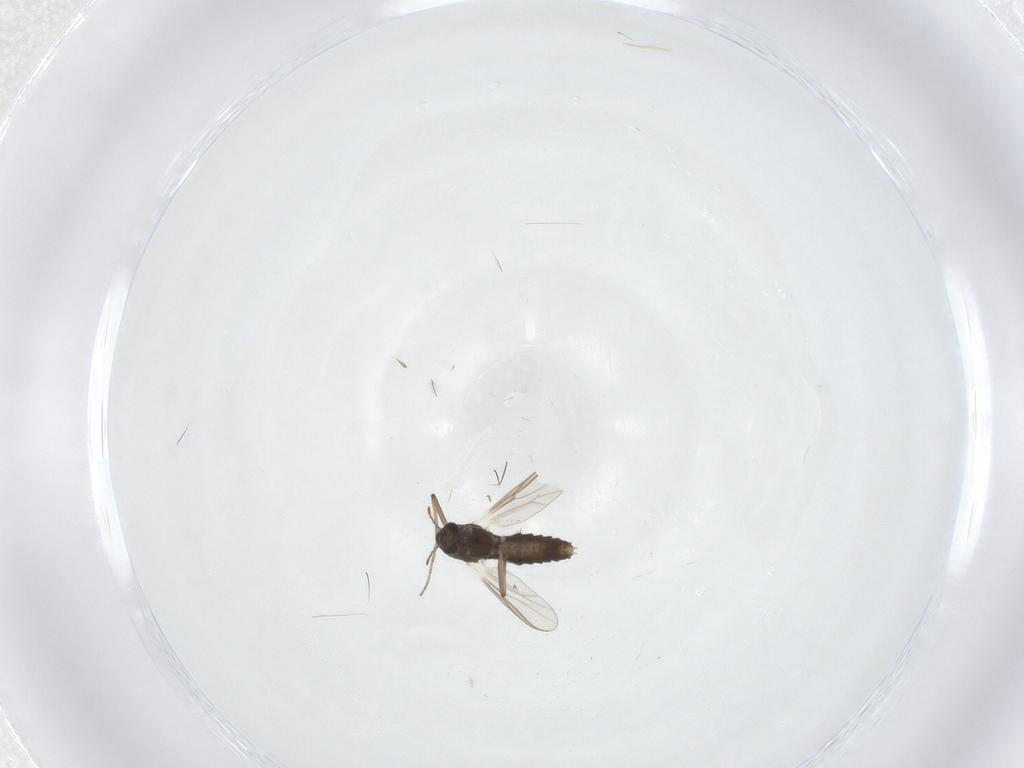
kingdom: Animalia
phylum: Arthropoda
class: Insecta
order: Diptera
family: Chironomidae
